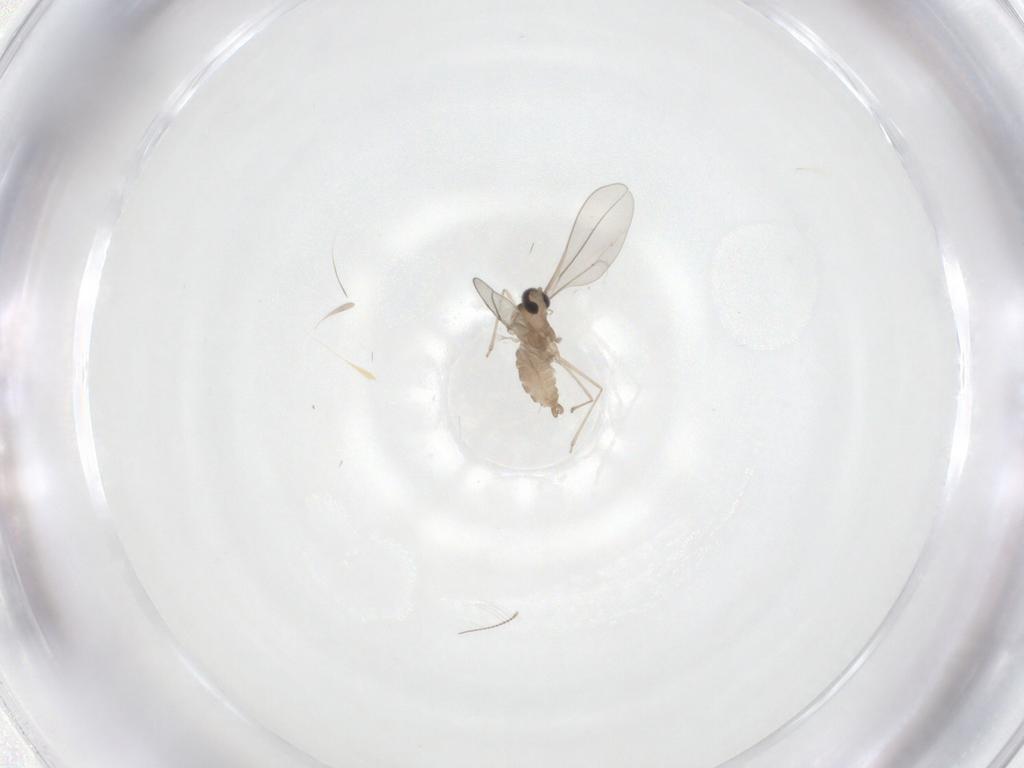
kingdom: Animalia
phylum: Arthropoda
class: Insecta
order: Diptera
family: Cecidomyiidae
